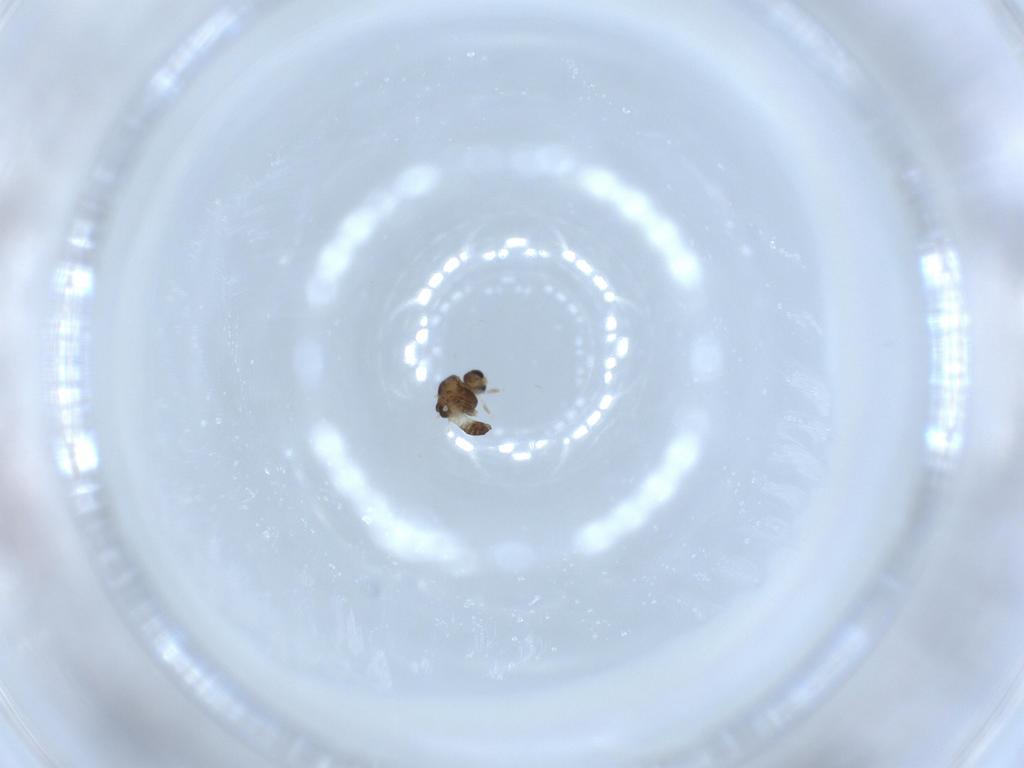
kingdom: Animalia
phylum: Arthropoda
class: Insecta
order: Diptera
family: Chironomidae
